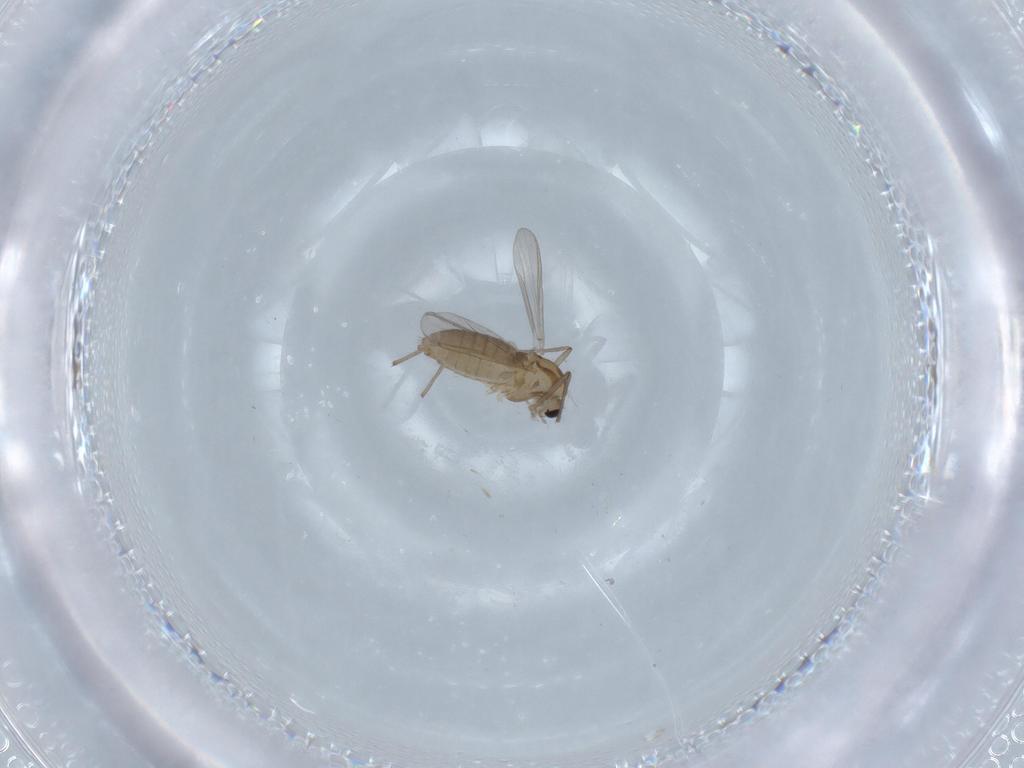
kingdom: Animalia
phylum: Arthropoda
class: Insecta
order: Diptera
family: Chironomidae
